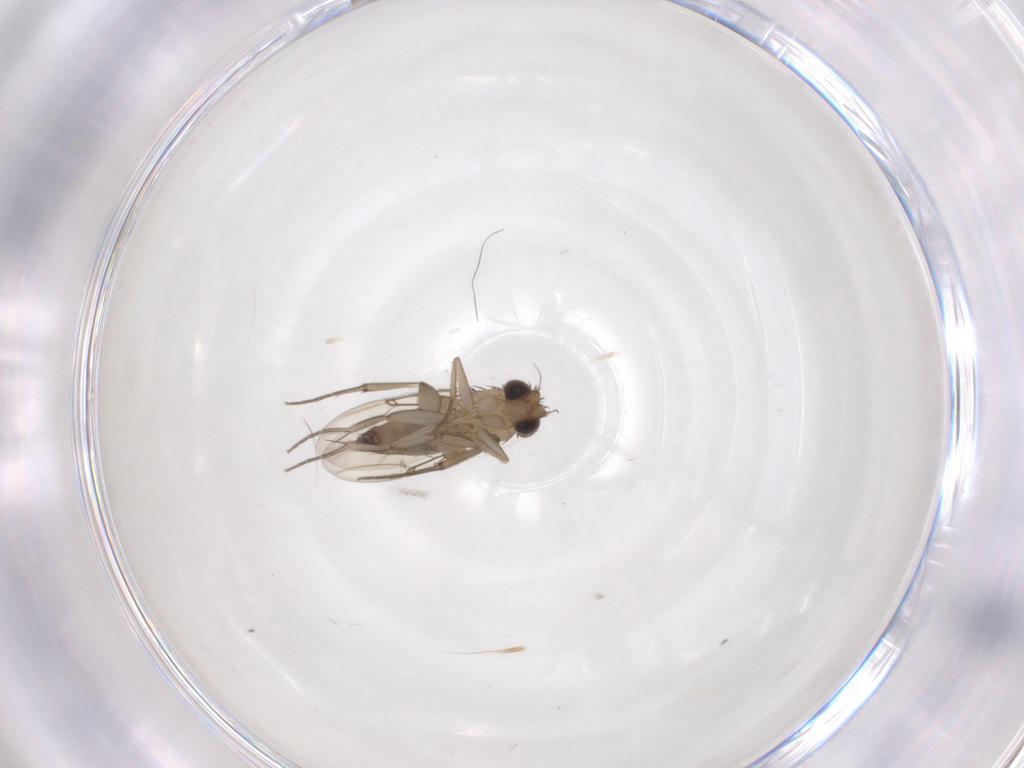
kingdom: Animalia
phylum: Arthropoda
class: Insecta
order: Diptera
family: Phoridae
